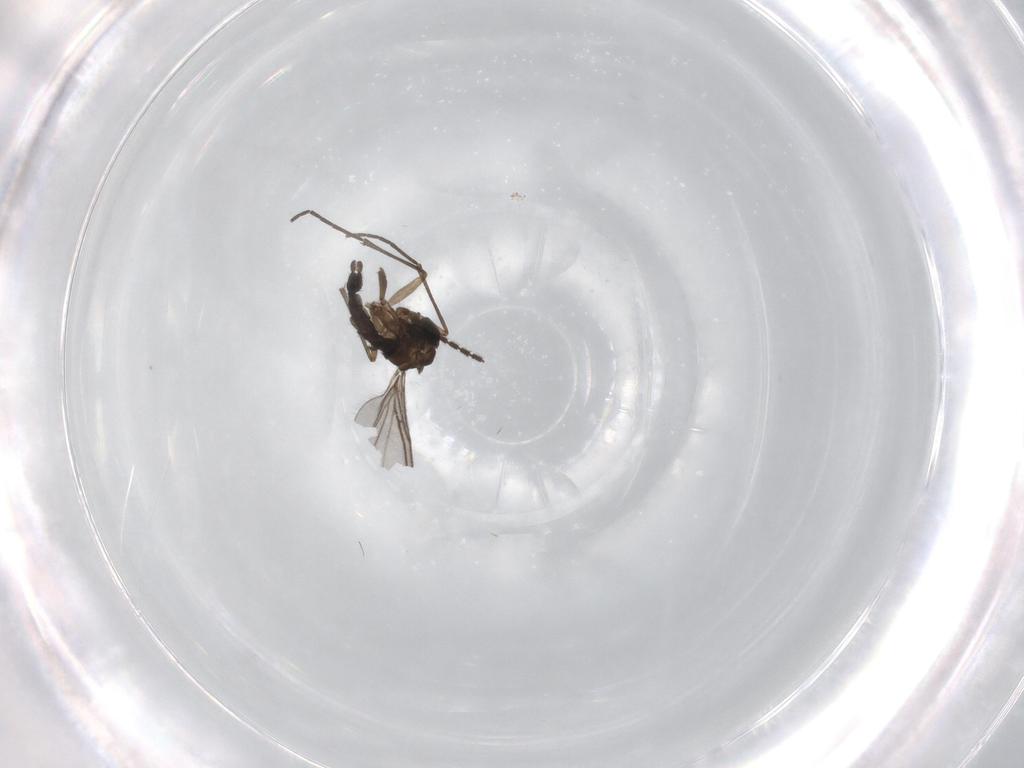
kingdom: Animalia
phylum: Arthropoda
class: Insecta
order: Diptera
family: Sciaridae
